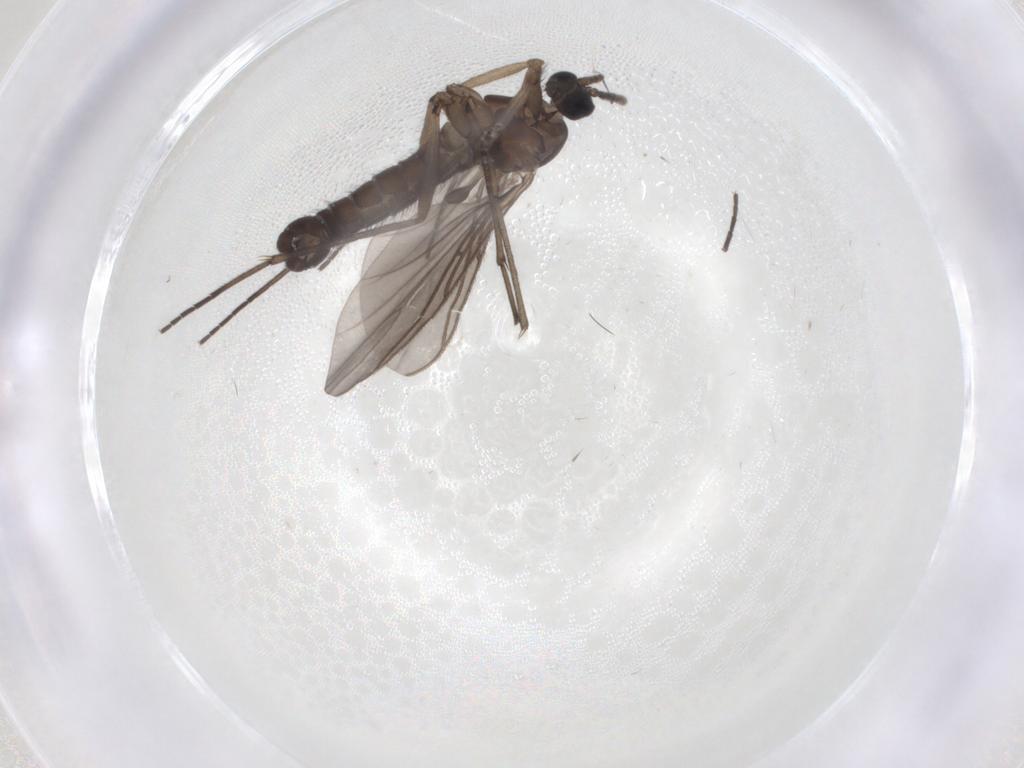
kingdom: Animalia
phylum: Arthropoda
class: Insecta
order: Diptera
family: Sciaridae
